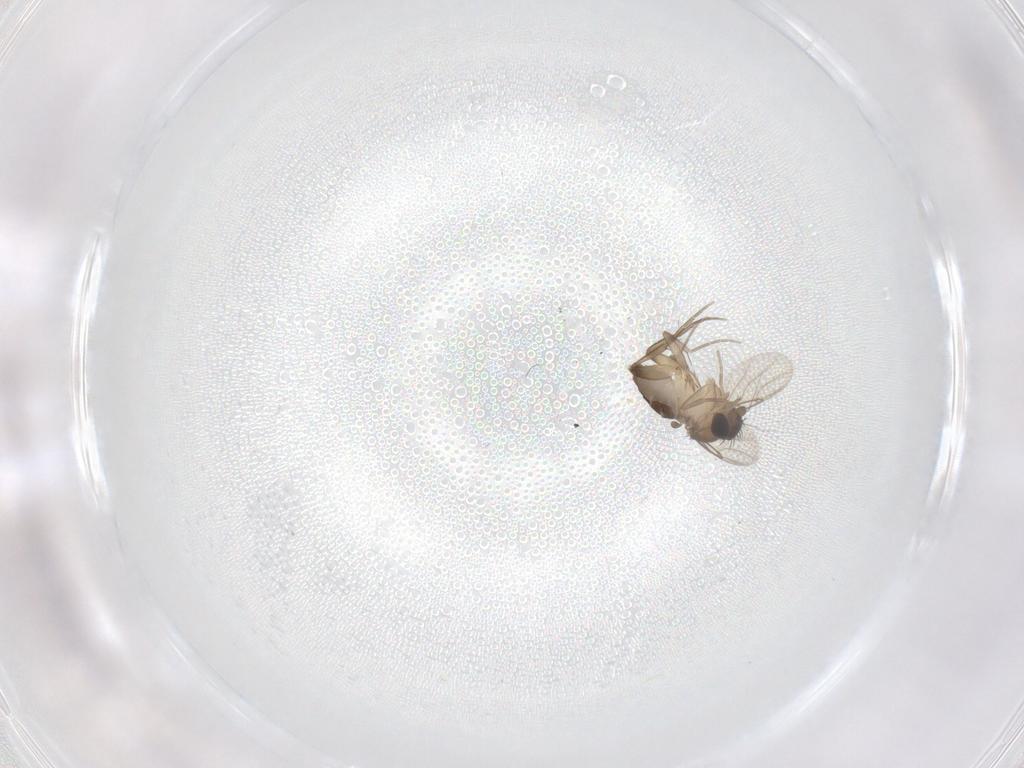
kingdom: Animalia
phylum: Arthropoda
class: Insecta
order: Diptera
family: Phoridae
